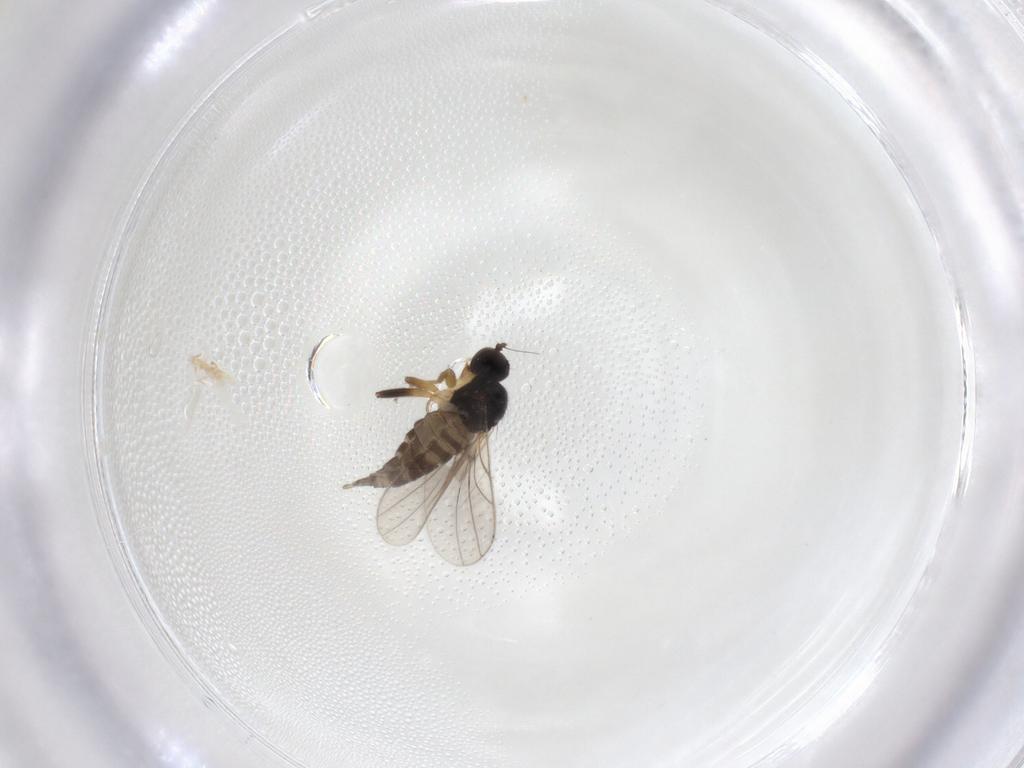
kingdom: Animalia
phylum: Arthropoda
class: Insecta
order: Diptera
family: Hybotidae
